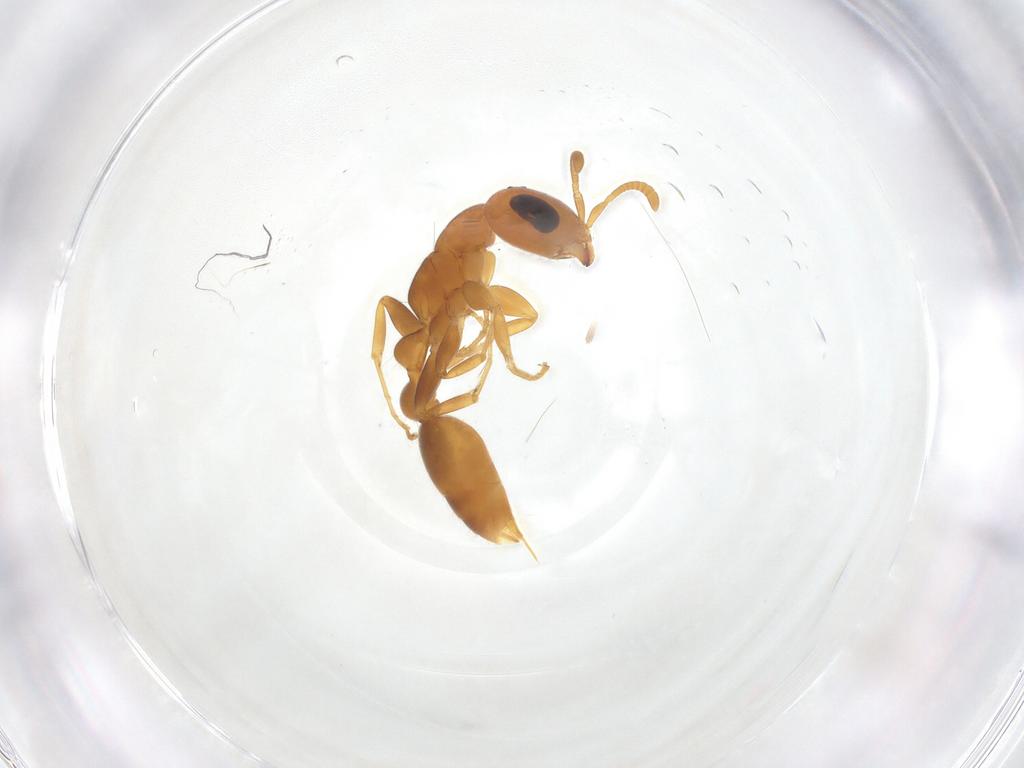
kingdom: Animalia
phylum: Arthropoda
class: Insecta
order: Hymenoptera
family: Formicidae
